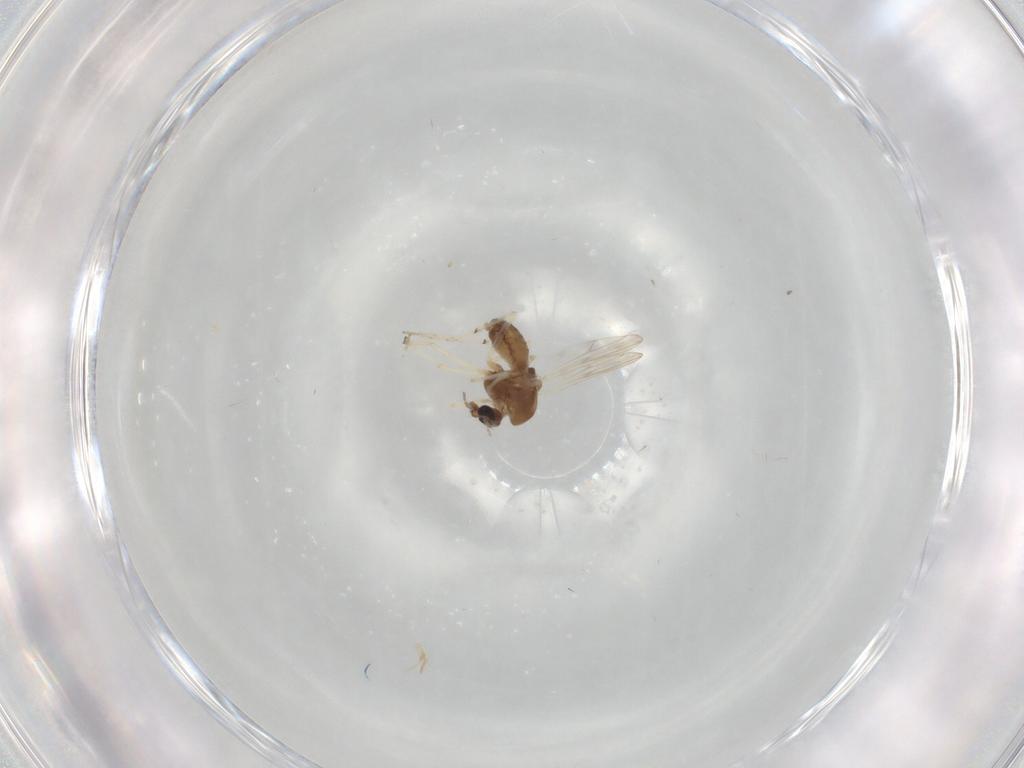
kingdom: Animalia
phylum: Arthropoda
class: Insecta
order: Diptera
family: Chironomidae
